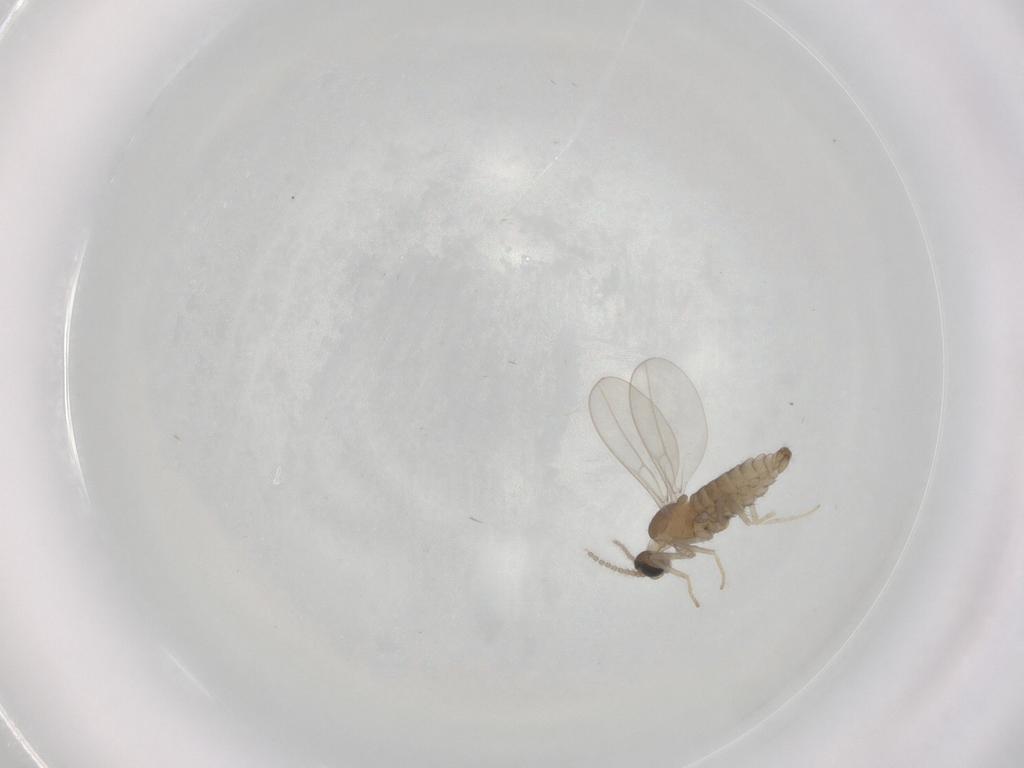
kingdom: Animalia
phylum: Arthropoda
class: Insecta
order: Diptera
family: Cecidomyiidae
